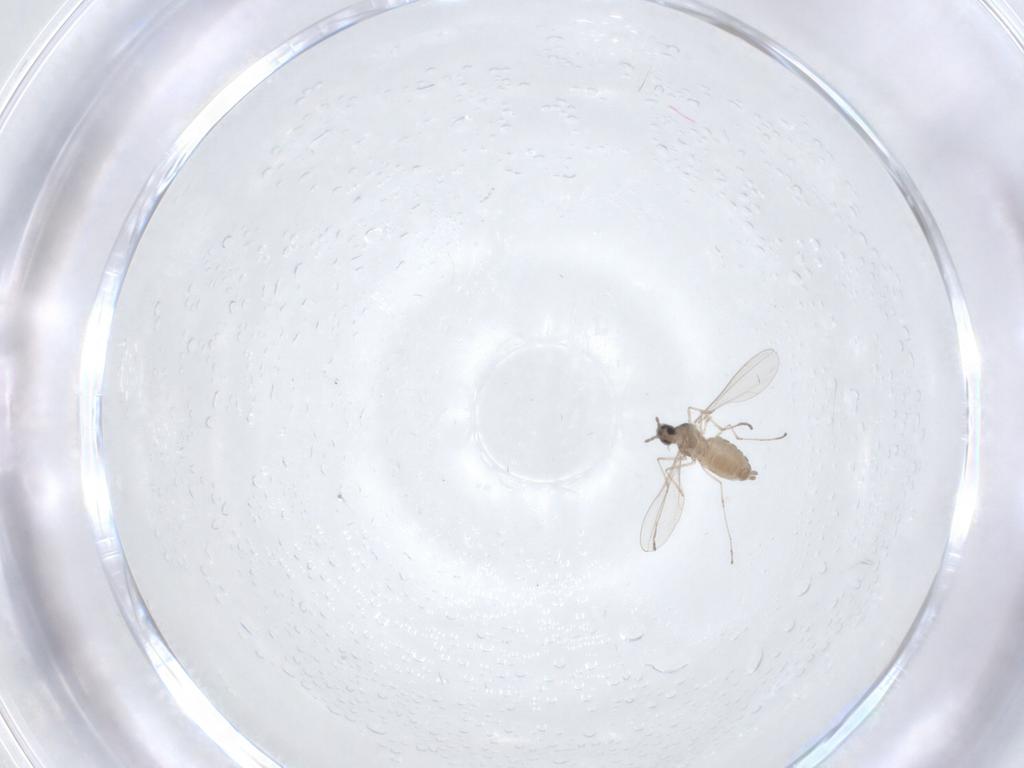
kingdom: Animalia
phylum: Arthropoda
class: Insecta
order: Diptera
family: Cecidomyiidae
